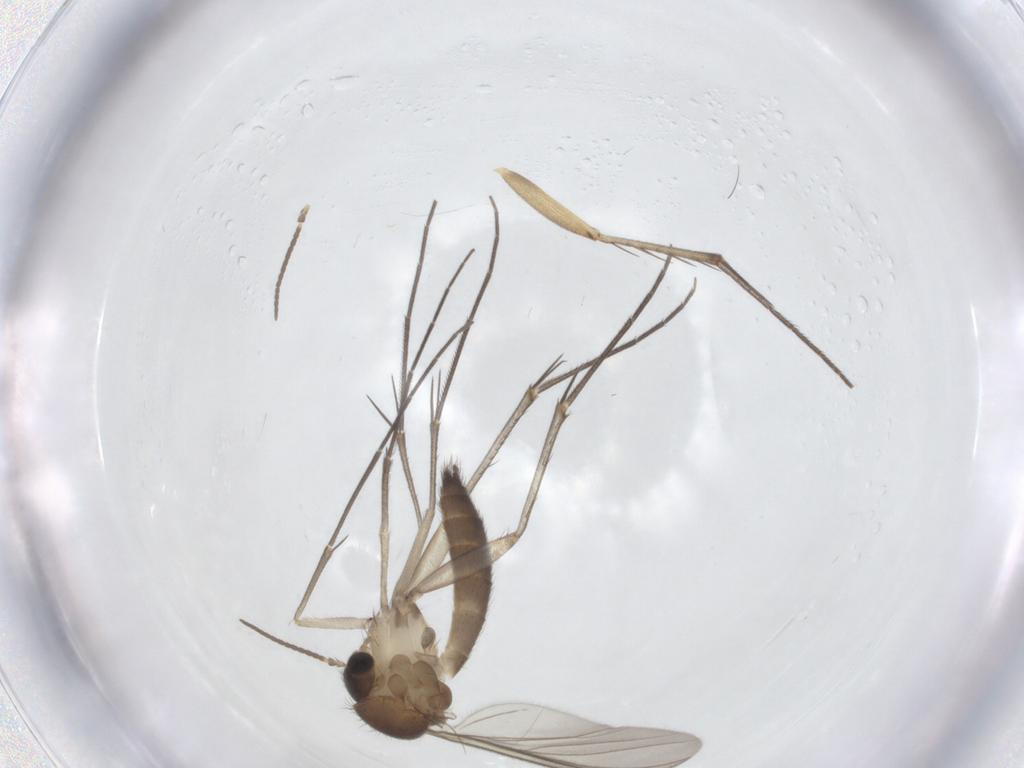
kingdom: Animalia
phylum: Arthropoda
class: Insecta
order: Diptera
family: Mycetophilidae
